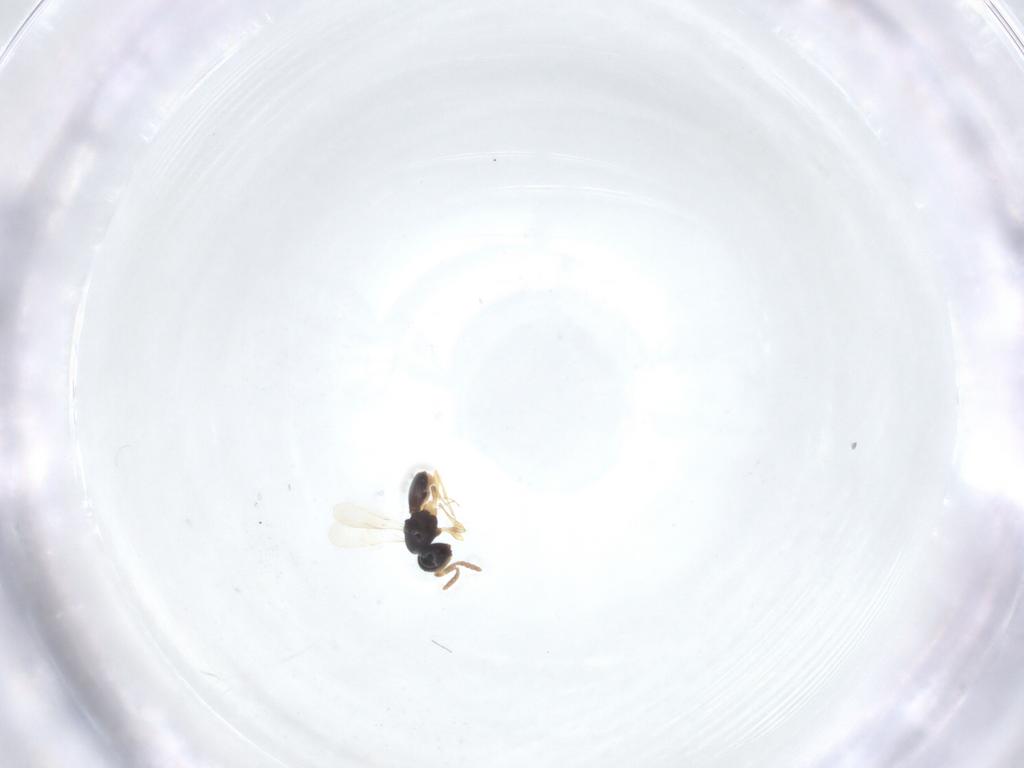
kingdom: Animalia
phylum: Arthropoda
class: Insecta
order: Hymenoptera
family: Scelionidae
